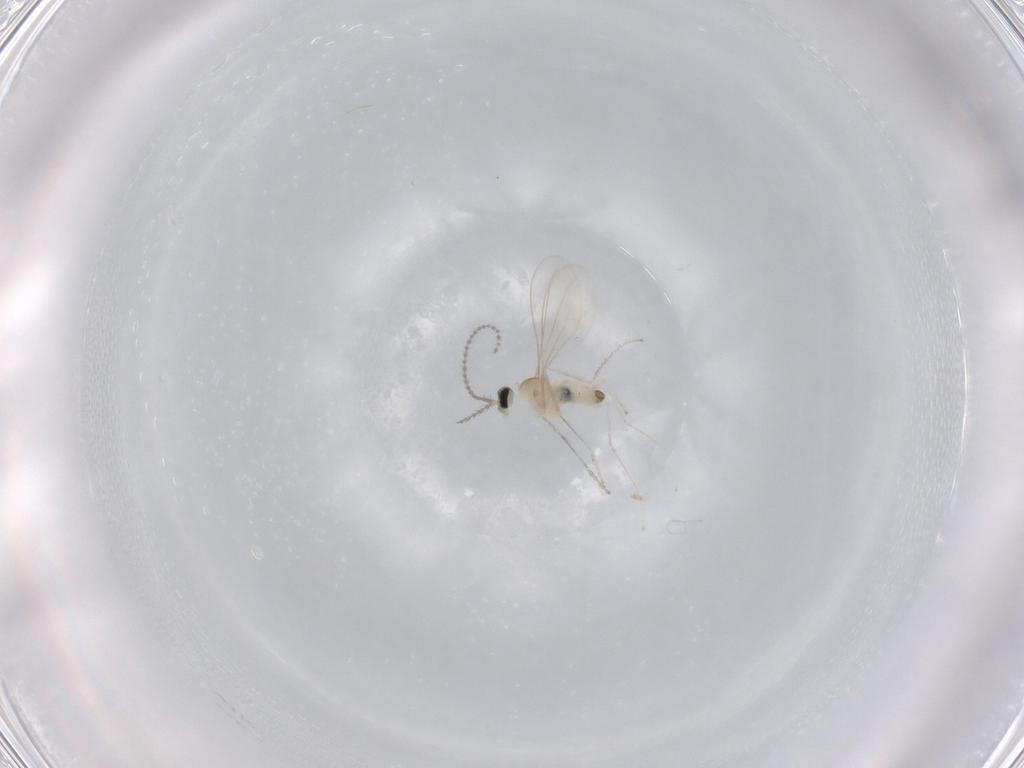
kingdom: Animalia
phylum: Arthropoda
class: Insecta
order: Diptera
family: Cecidomyiidae
